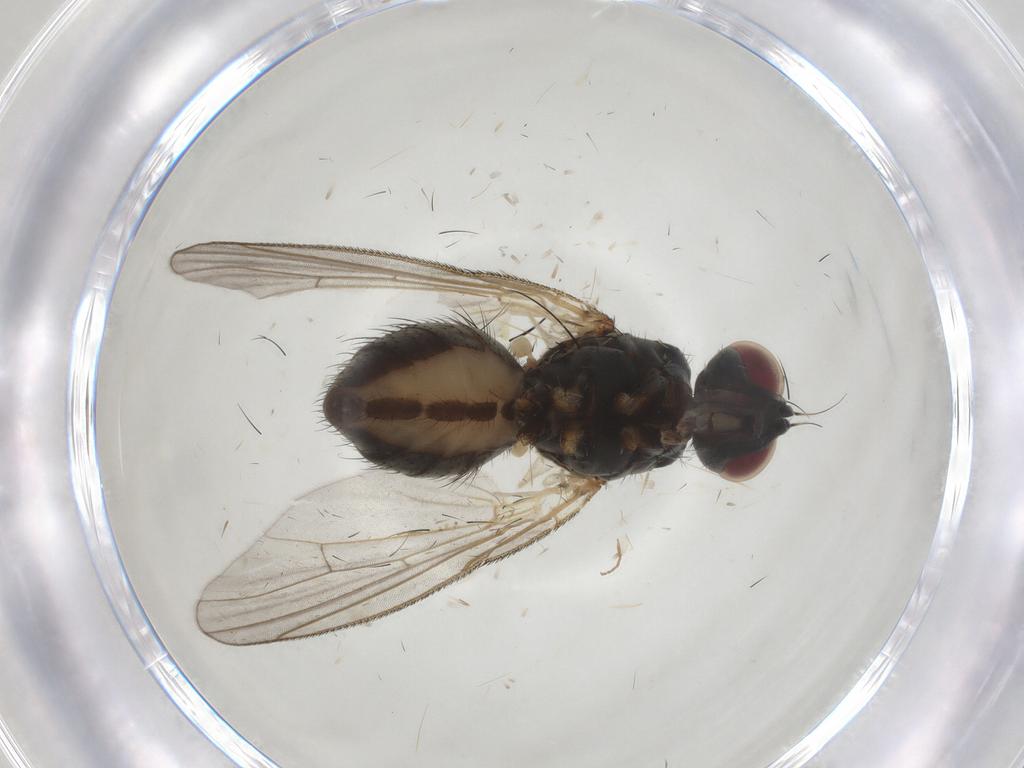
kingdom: Animalia
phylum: Arthropoda
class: Insecta
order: Diptera
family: Cecidomyiidae
